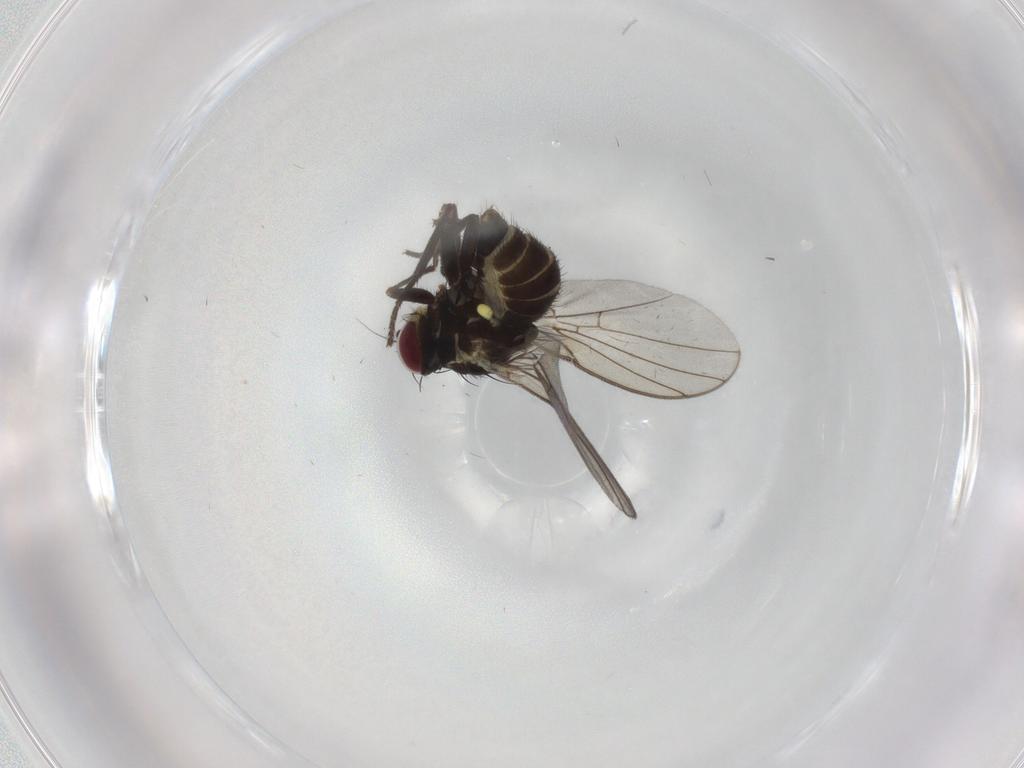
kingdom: Animalia
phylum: Arthropoda
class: Insecta
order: Diptera
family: Agromyzidae
